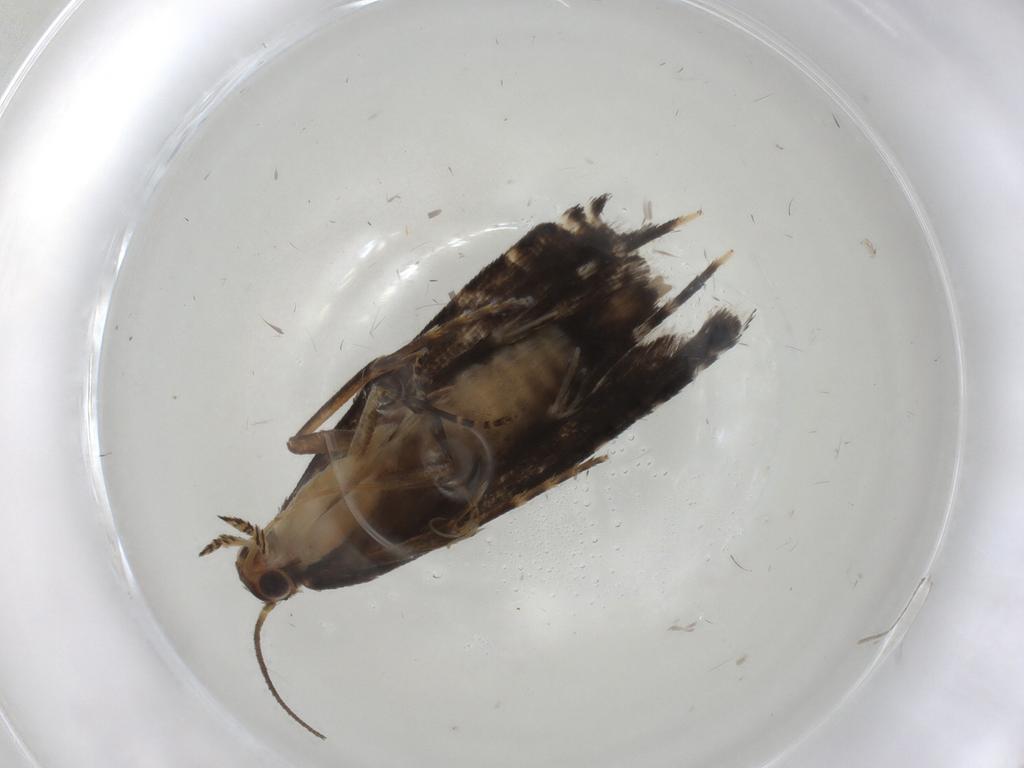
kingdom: Animalia
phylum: Arthropoda
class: Insecta
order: Lepidoptera
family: Glyphipterigidae
